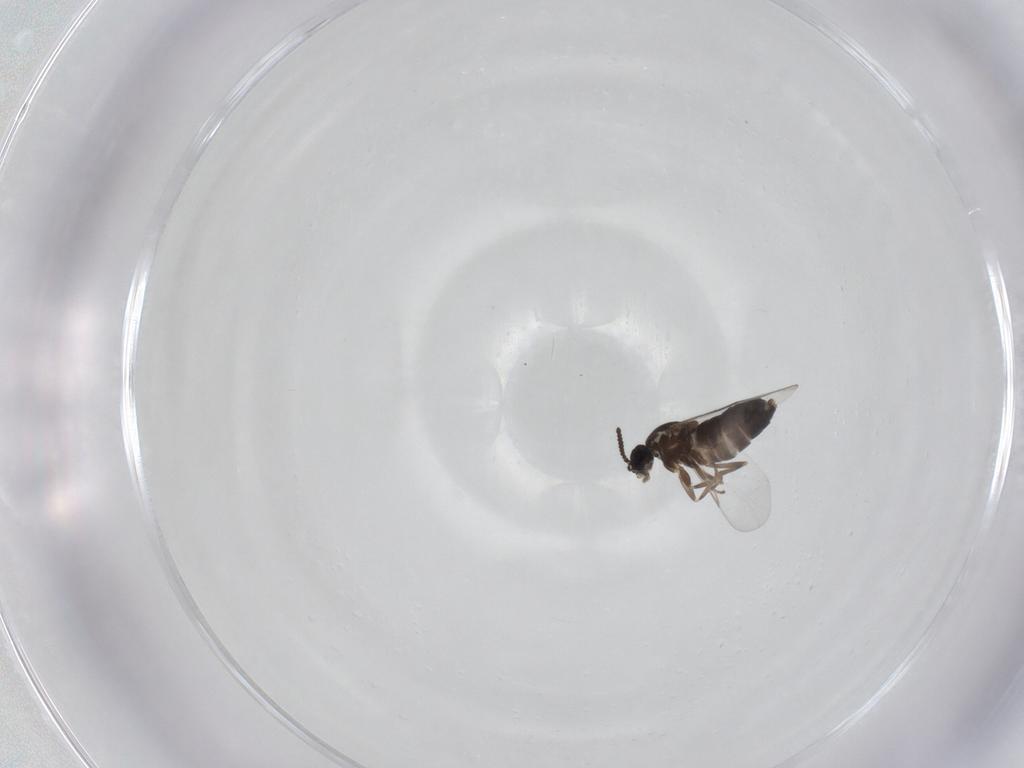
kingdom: Animalia
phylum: Arthropoda
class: Insecta
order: Diptera
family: Scatopsidae
